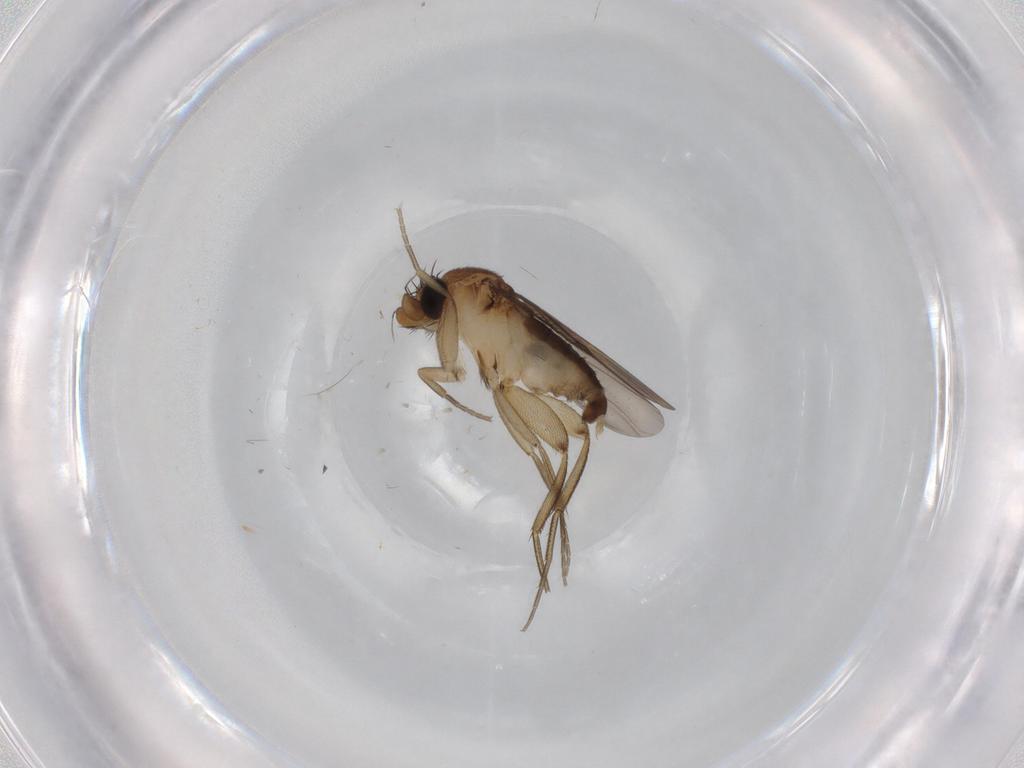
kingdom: Animalia
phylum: Arthropoda
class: Insecta
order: Diptera
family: Phoridae
